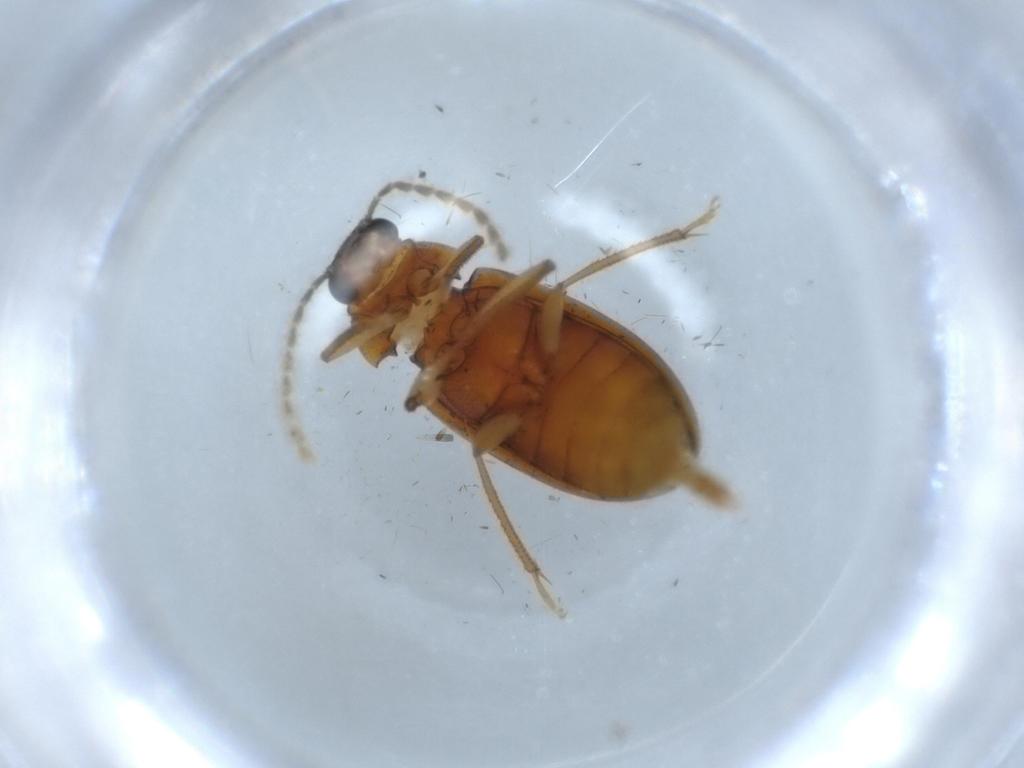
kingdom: Animalia
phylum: Arthropoda
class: Insecta
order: Coleoptera
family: Ptilodactylidae
